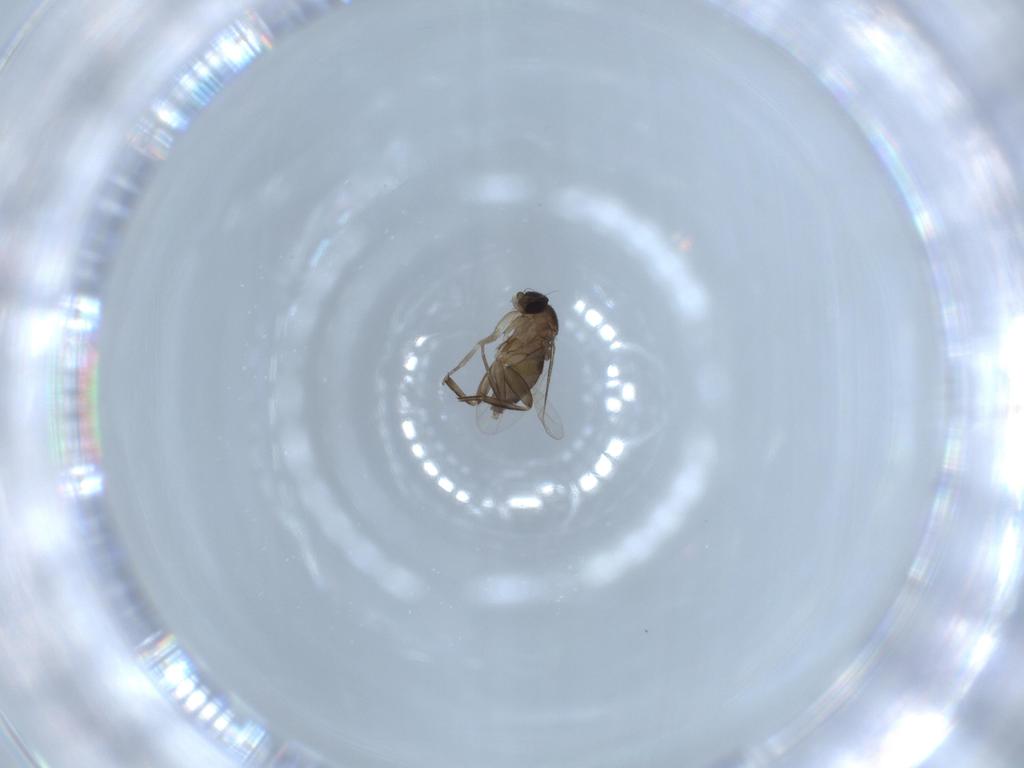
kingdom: Animalia
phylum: Arthropoda
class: Insecta
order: Diptera
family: Phoridae
